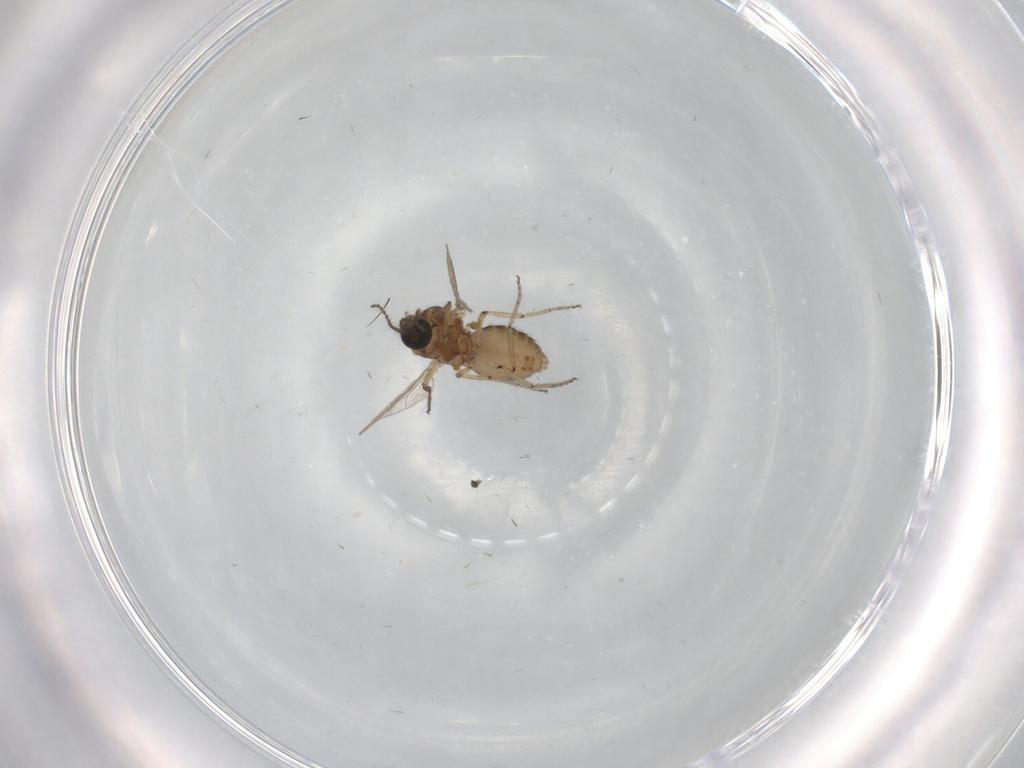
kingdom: Animalia
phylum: Arthropoda
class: Insecta
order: Diptera
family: Ceratopogonidae
